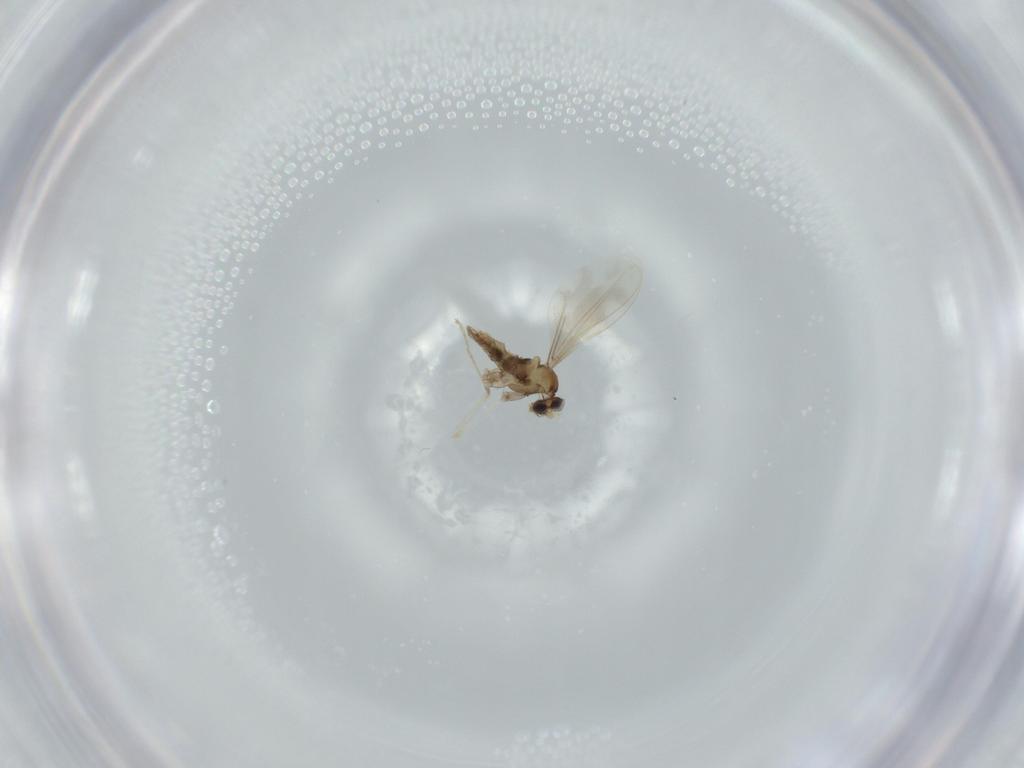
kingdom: Animalia
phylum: Arthropoda
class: Insecta
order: Diptera
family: Cecidomyiidae
